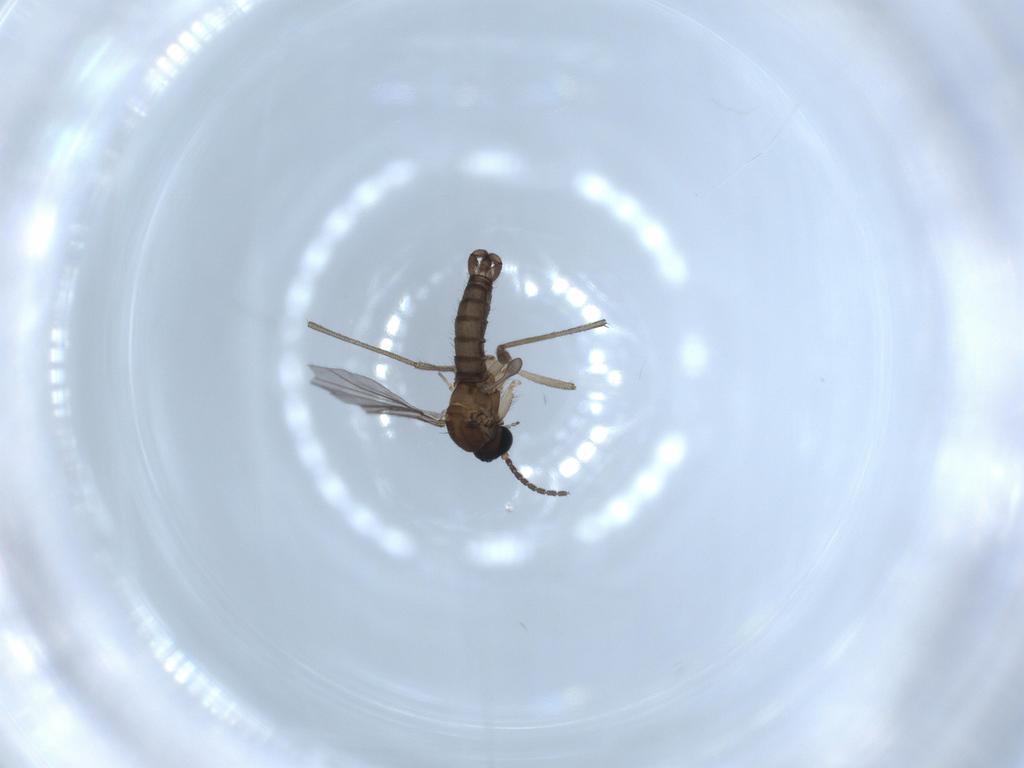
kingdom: Animalia
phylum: Arthropoda
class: Insecta
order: Diptera
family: Sciaridae
